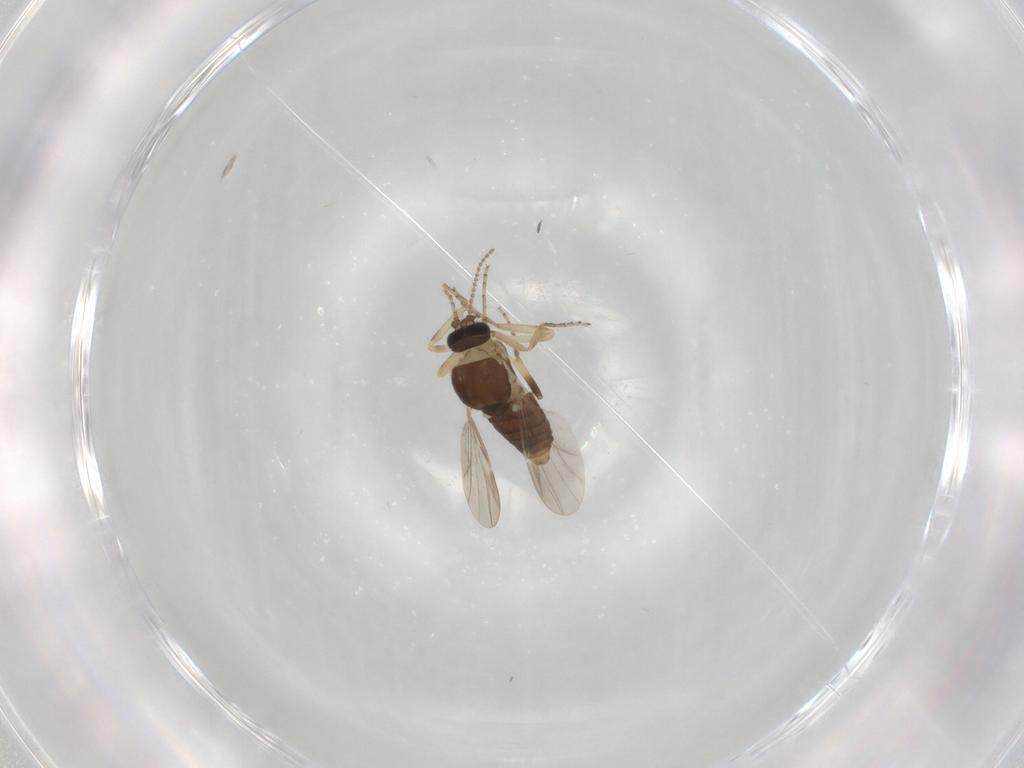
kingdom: Animalia
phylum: Arthropoda
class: Insecta
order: Diptera
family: Ceratopogonidae
